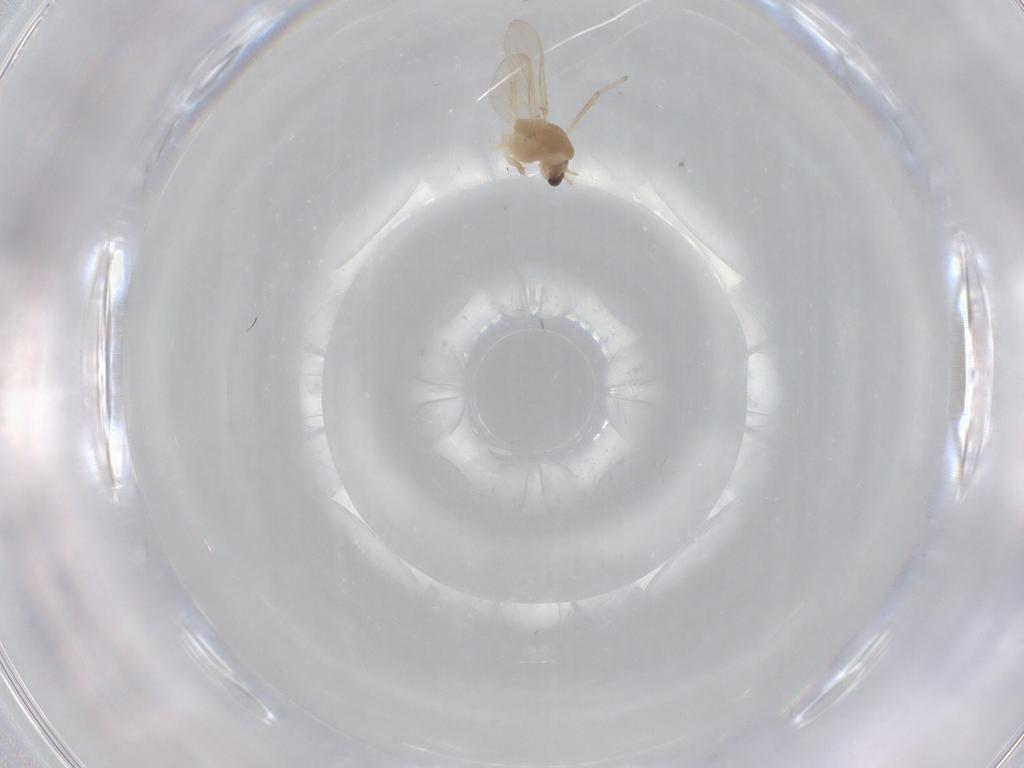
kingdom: Animalia
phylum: Arthropoda
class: Insecta
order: Diptera
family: Chironomidae
